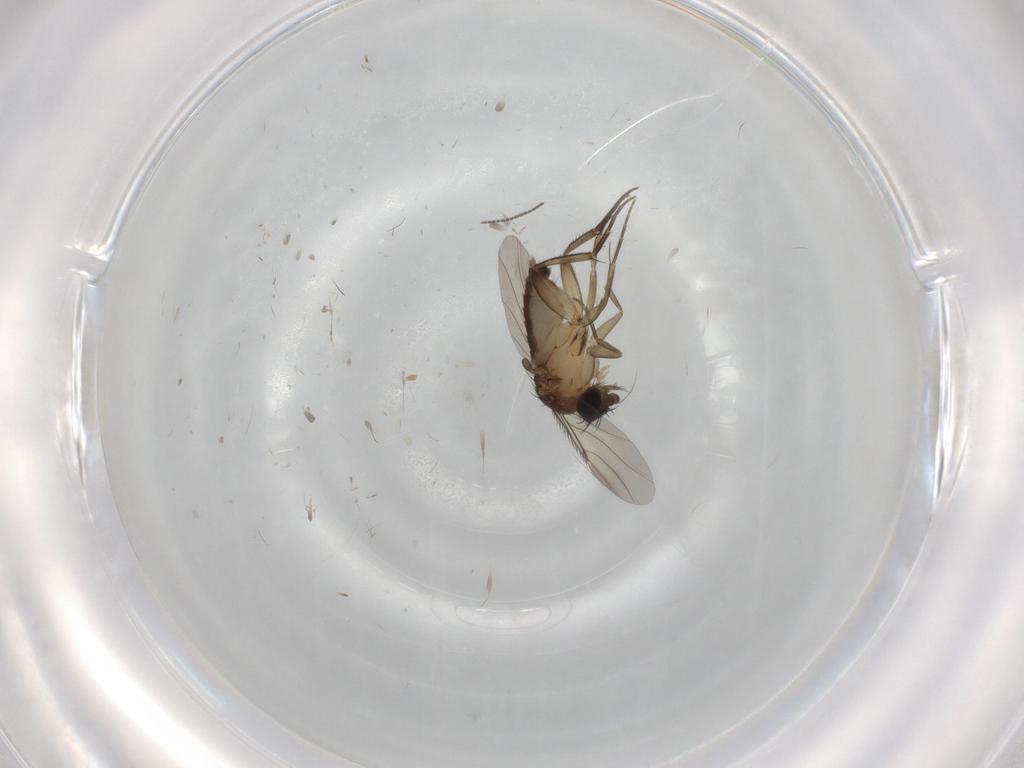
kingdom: Animalia
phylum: Arthropoda
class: Insecta
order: Diptera
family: Phoridae
